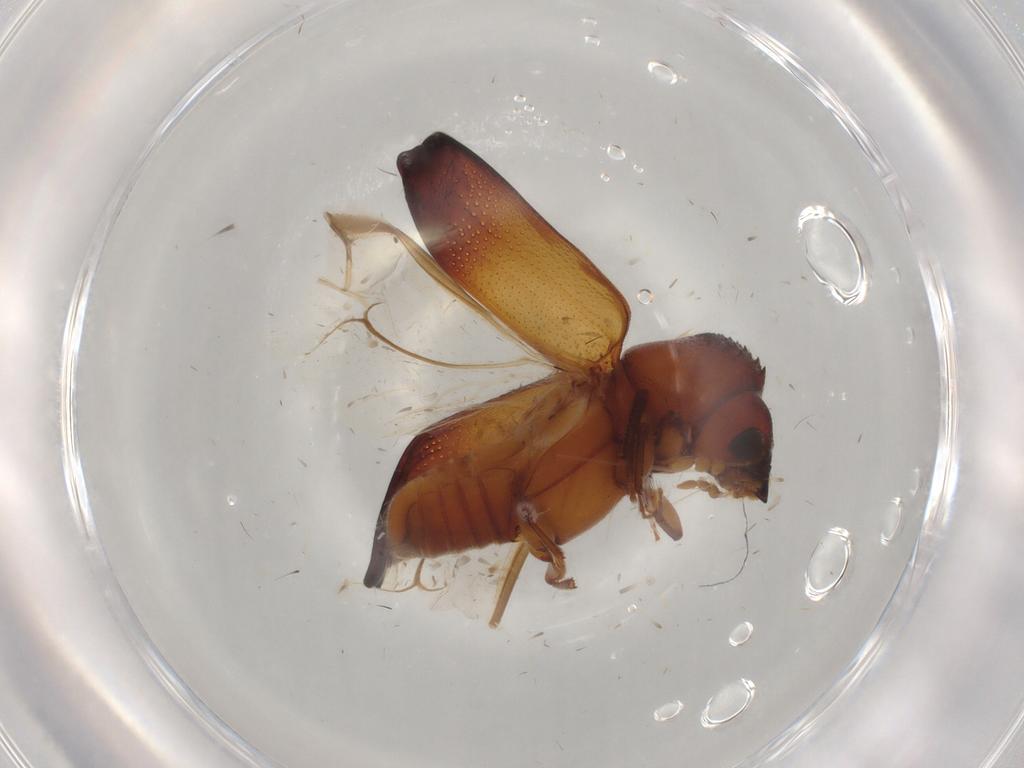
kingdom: Animalia
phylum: Arthropoda
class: Insecta
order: Coleoptera
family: Bostrichidae
